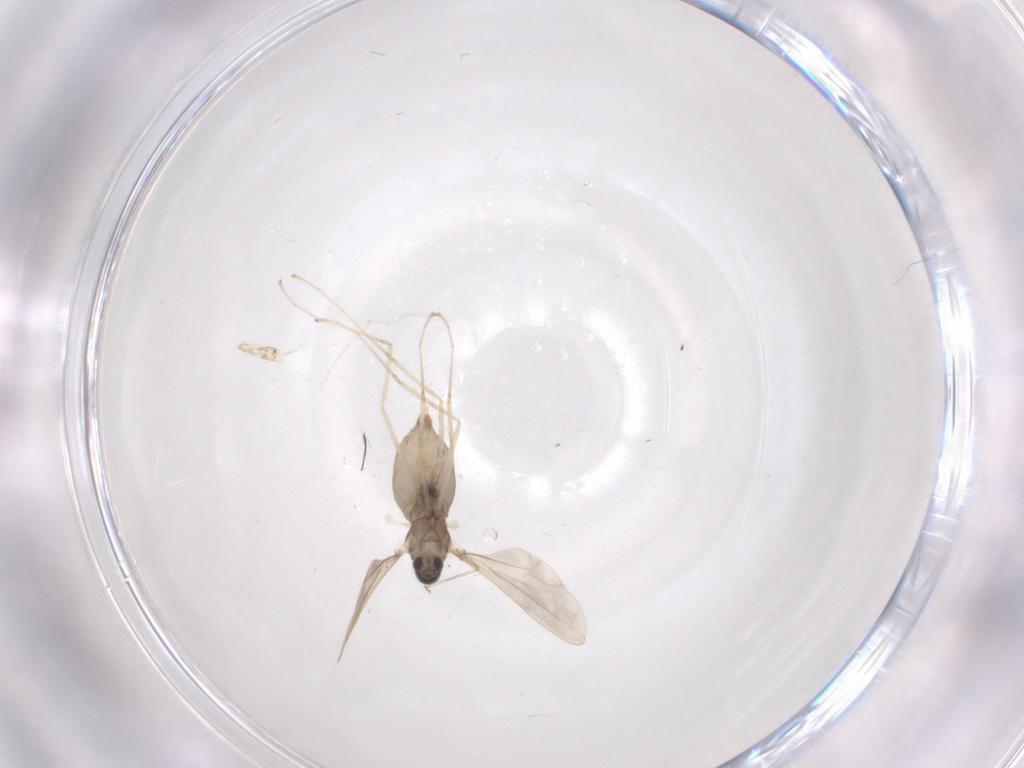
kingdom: Animalia
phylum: Arthropoda
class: Insecta
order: Diptera
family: Cecidomyiidae
